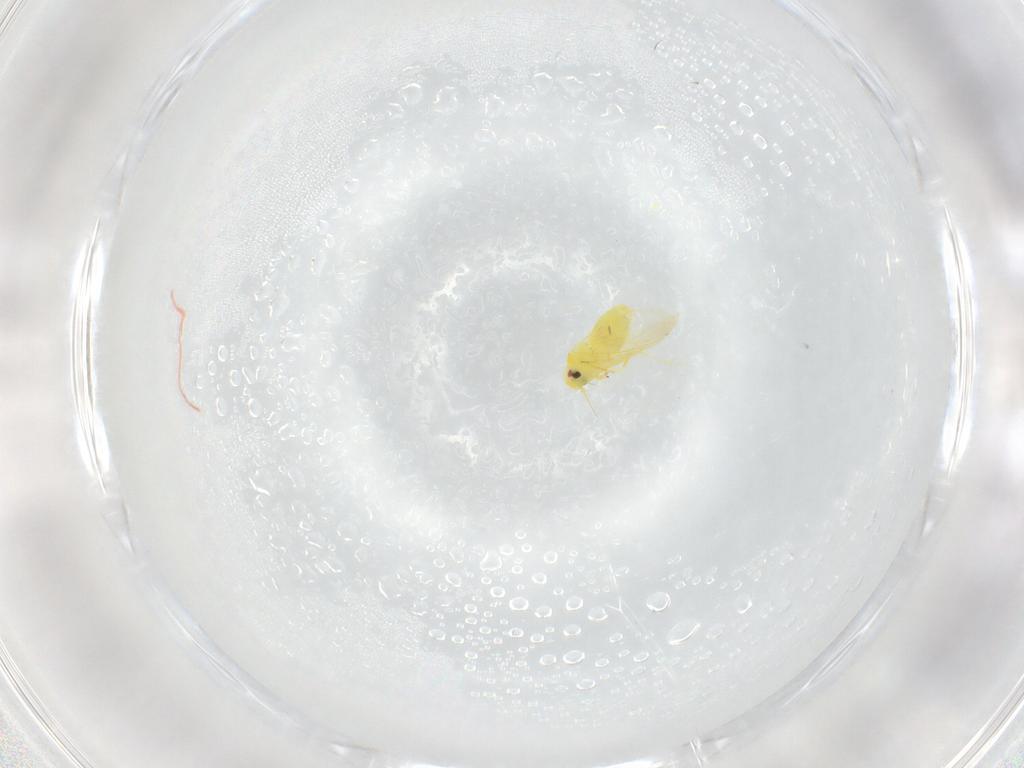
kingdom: Animalia
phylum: Arthropoda
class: Insecta
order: Hemiptera
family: Aleyrodidae
